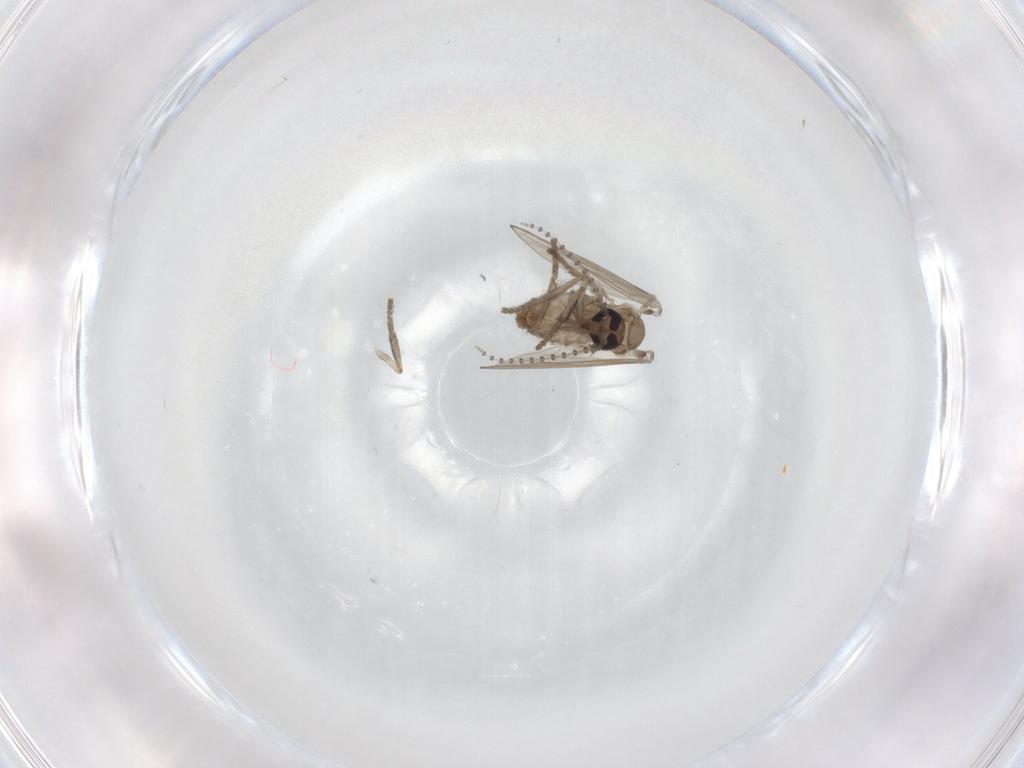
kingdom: Animalia
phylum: Arthropoda
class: Insecta
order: Diptera
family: Psychodidae
